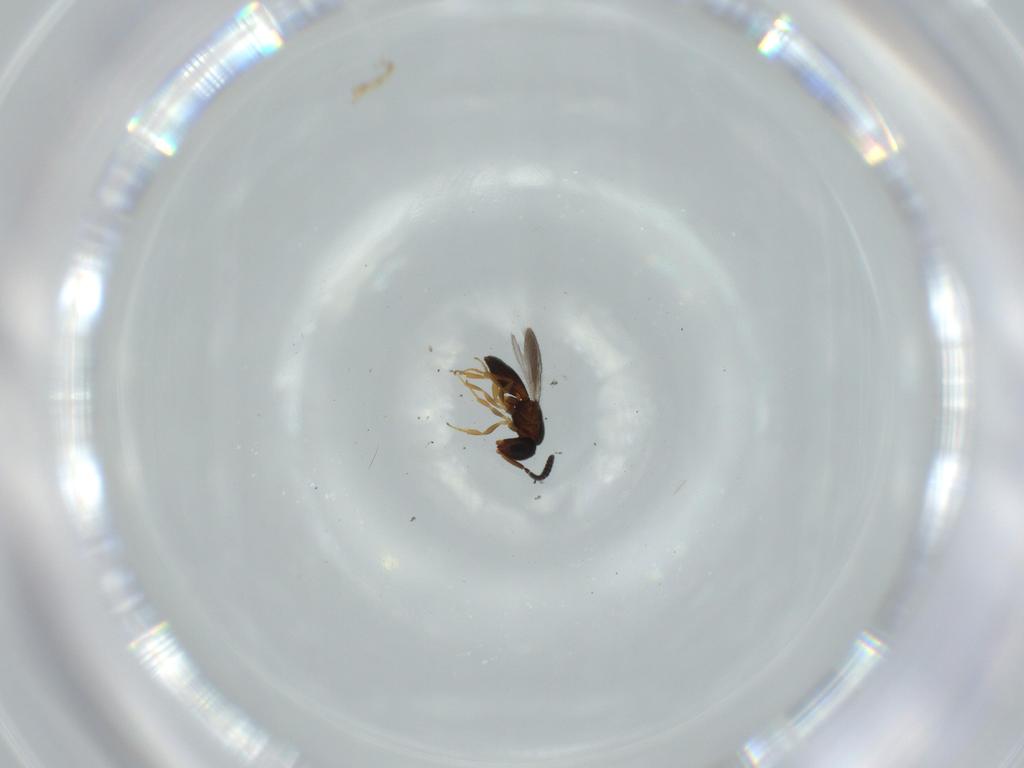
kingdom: Animalia
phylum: Arthropoda
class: Insecta
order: Hymenoptera
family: Scelionidae
